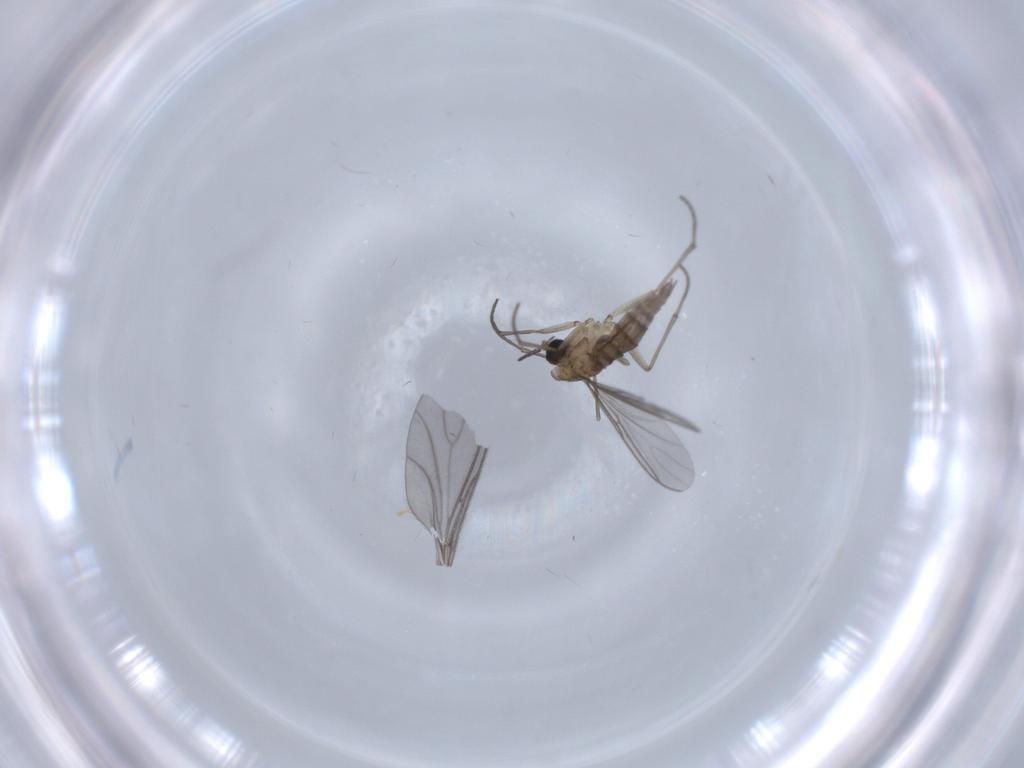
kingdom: Animalia
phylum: Arthropoda
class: Insecta
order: Diptera
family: Sciaridae
